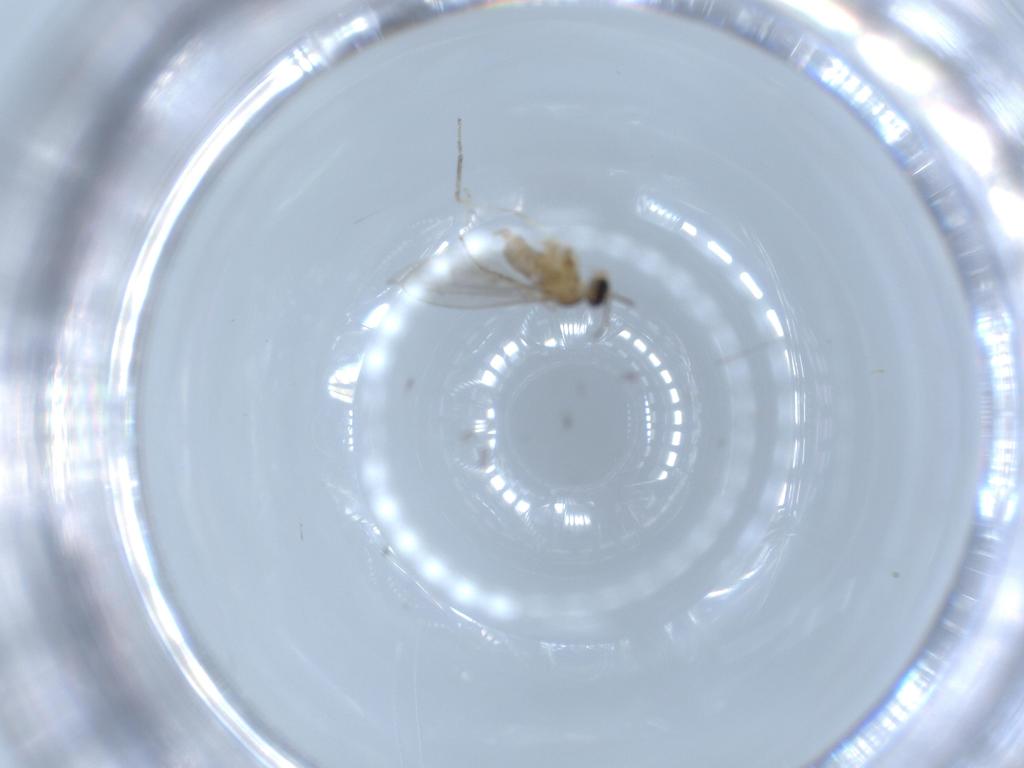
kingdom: Animalia
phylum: Arthropoda
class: Insecta
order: Diptera
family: Cecidomyiidae
